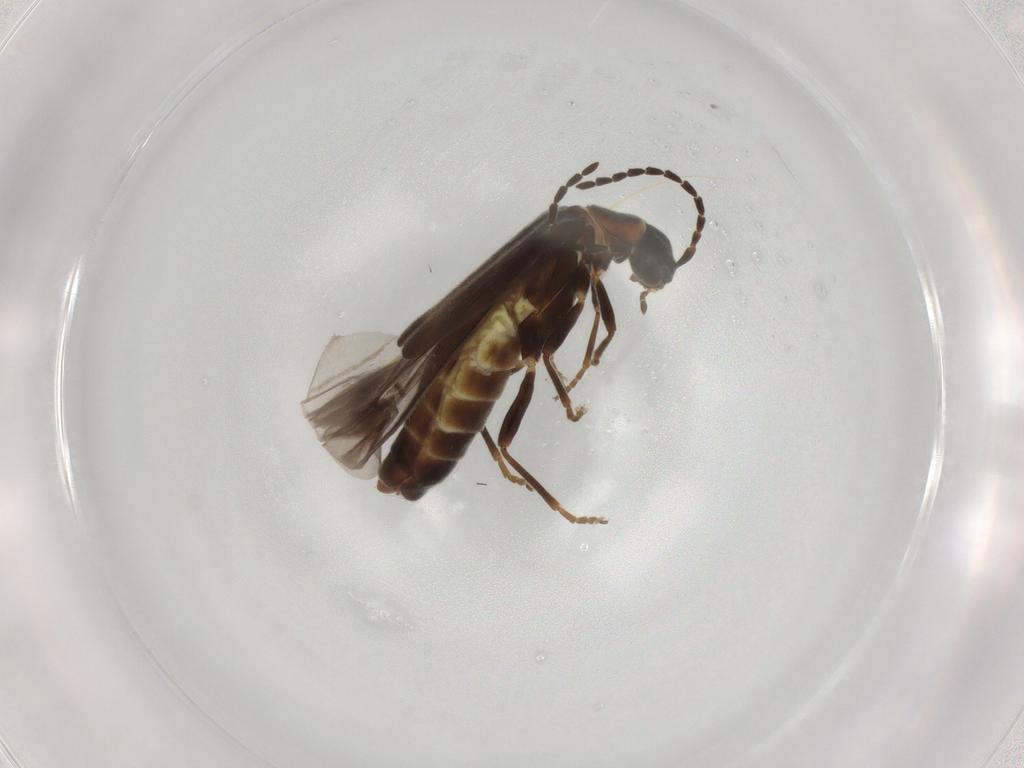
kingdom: Animalia
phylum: Arthropoda
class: Insecta
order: Coleoptera
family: Cantharidae
